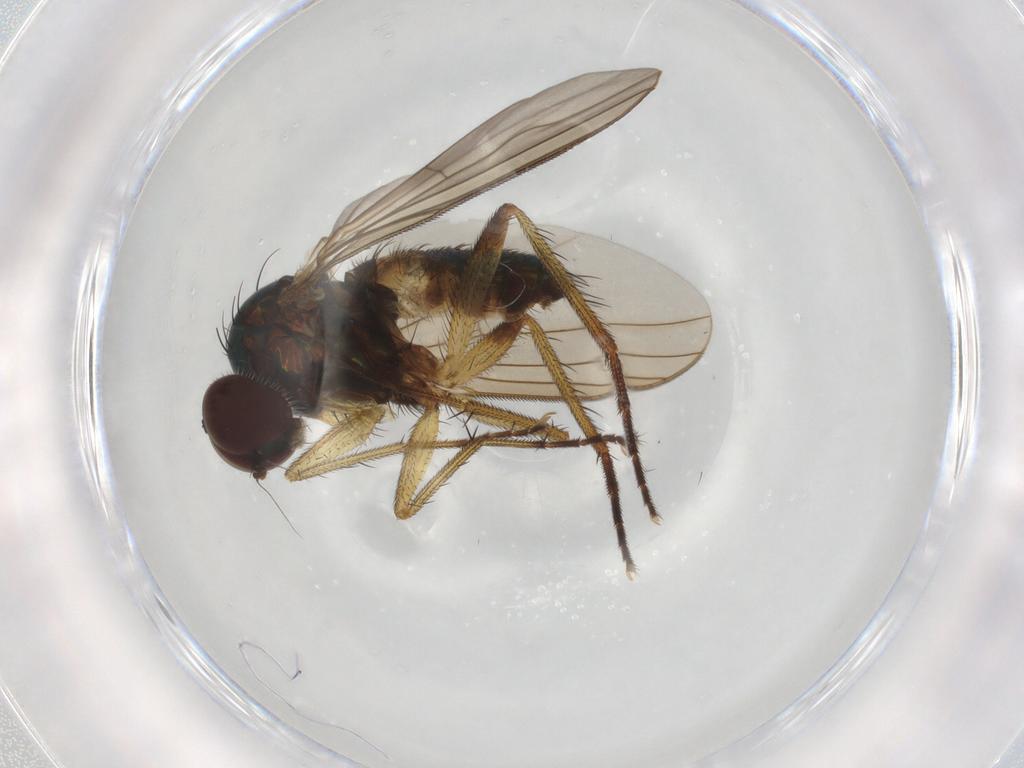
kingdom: Animalia
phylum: Arthropoda
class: Insecta
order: Diptera
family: Dolichopodidae
